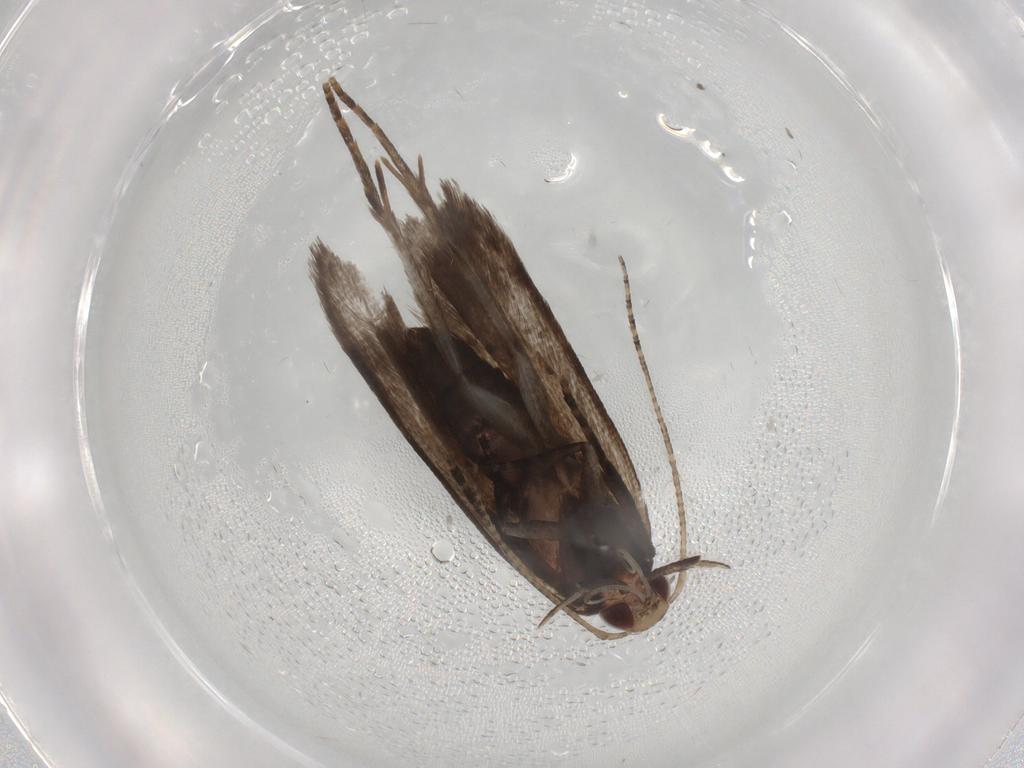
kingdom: Animalia
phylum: Arthropoda
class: Insecta
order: Lepidoptera
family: Gelechiidae
